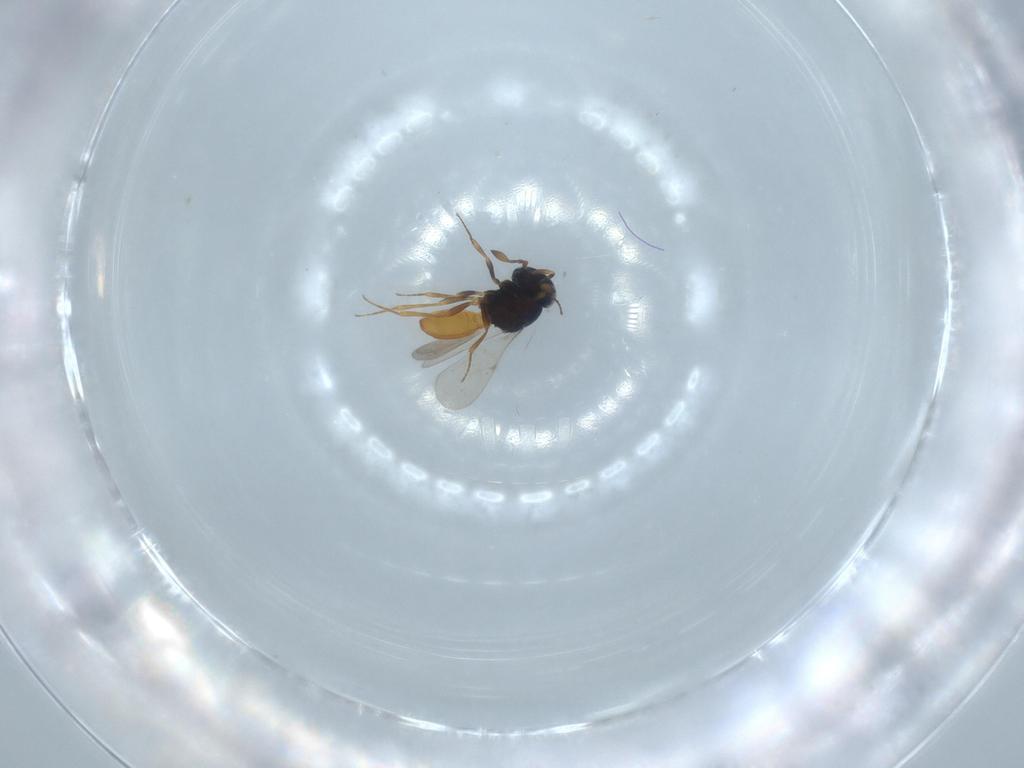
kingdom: Animalia
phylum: Arthropoda
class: Insecta
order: Hymenoptera
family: Scelionidae
